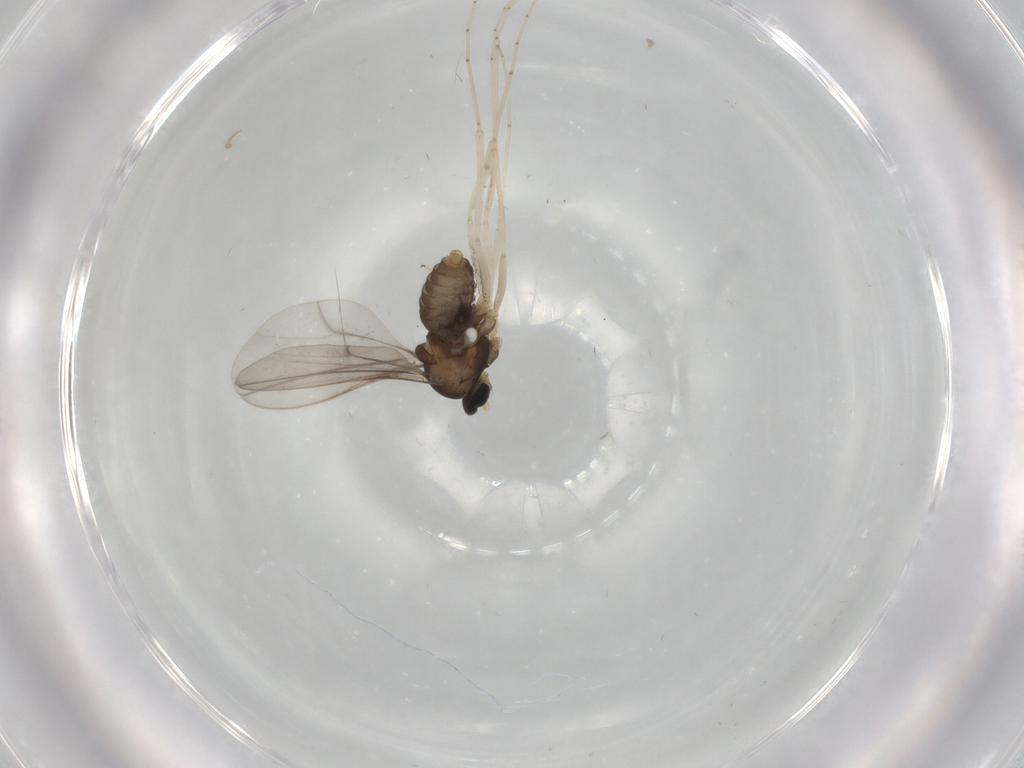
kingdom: Animalia
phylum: Arthropoda
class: Insecta
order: Diptera
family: Cecidomyiidae
